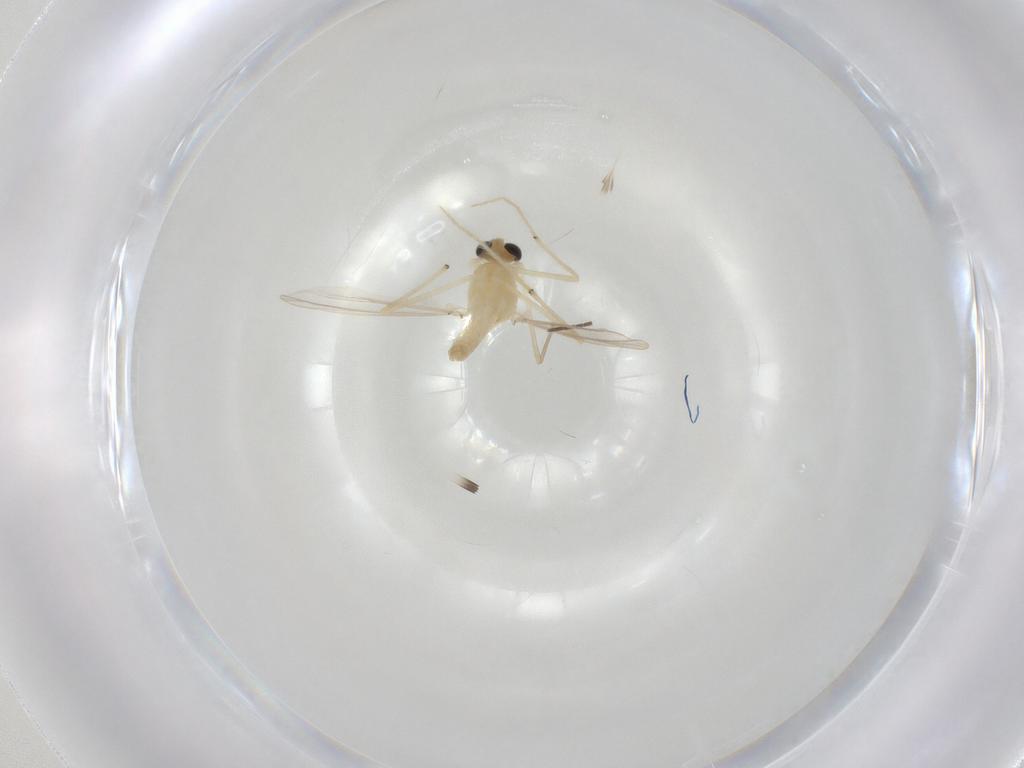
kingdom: Animalia
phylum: Arthropoda
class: Insecta
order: Diptera
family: Chironomidae
